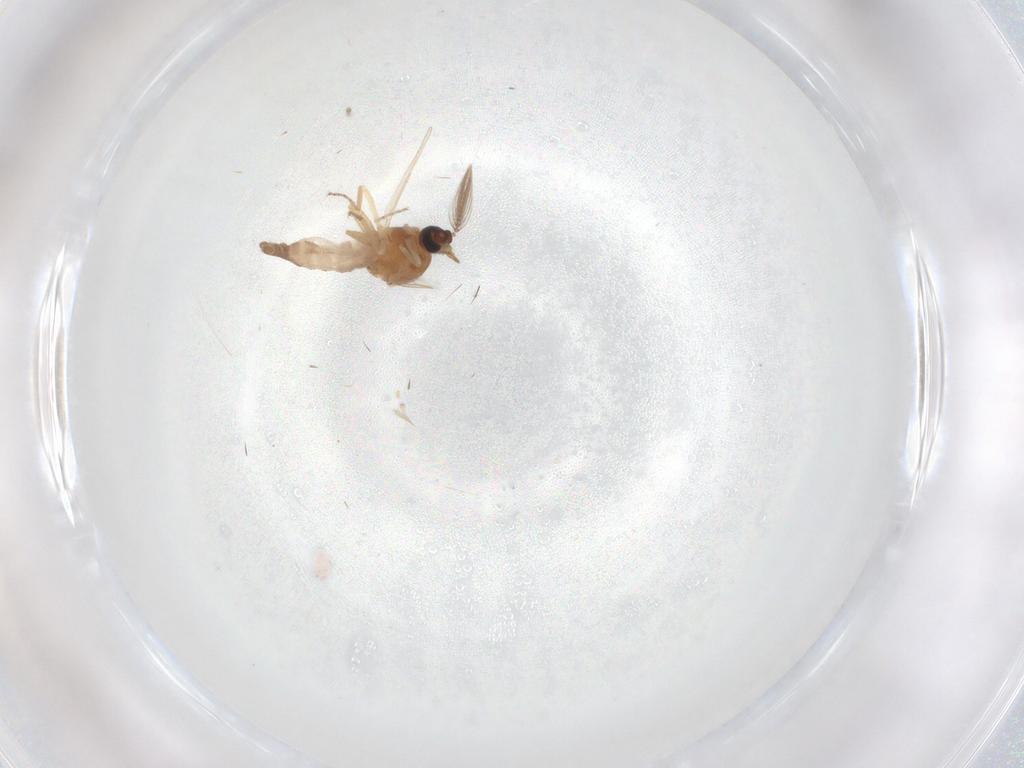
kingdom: Animalia
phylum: Arthropoda
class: Insecta
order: Diptera
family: Ceratopogonidae
